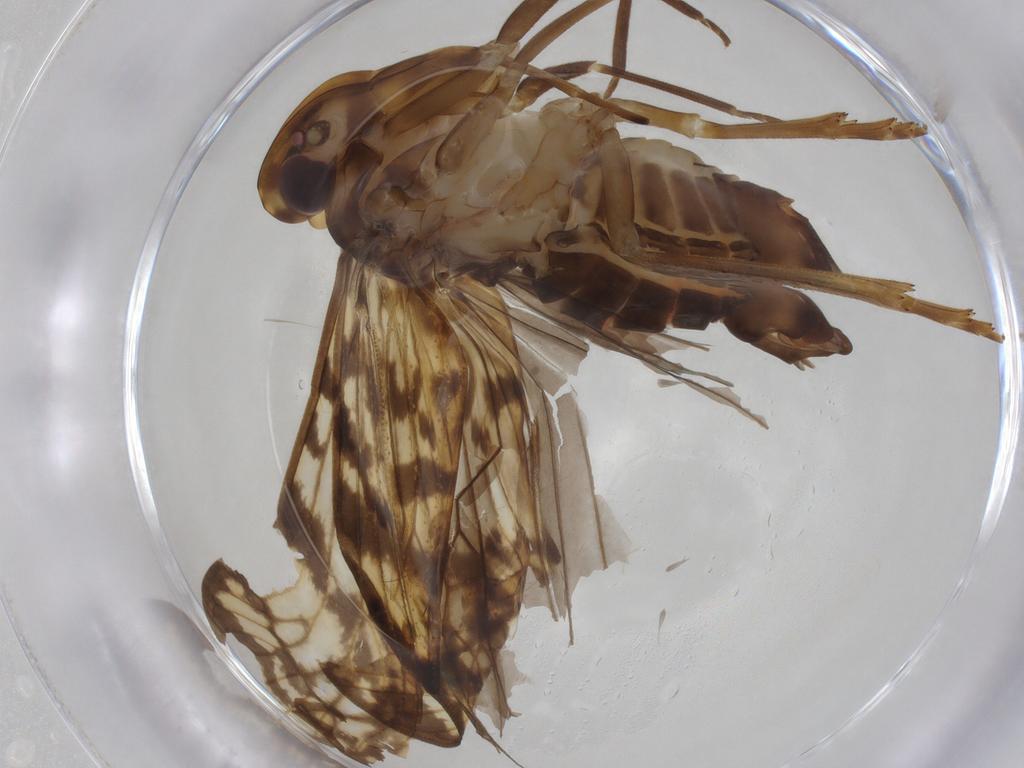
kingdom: Animalia
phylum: Arthropoda
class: Insecta
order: Hemiptera
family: Cixiidae
